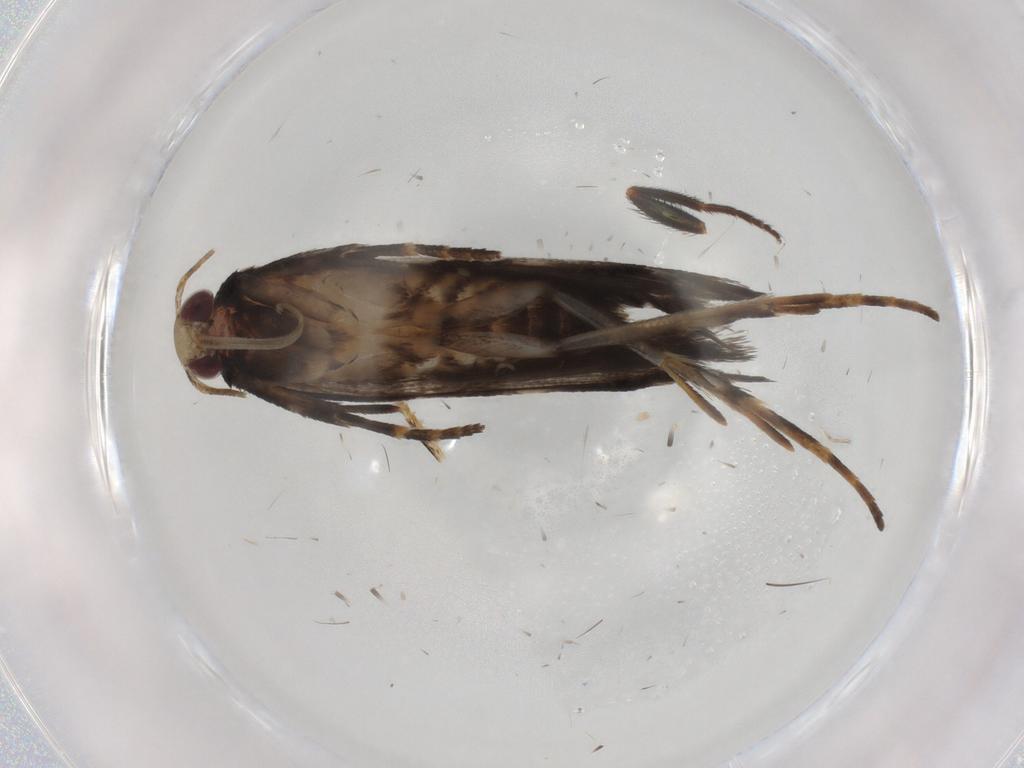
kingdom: Animalia
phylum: Arthropoda
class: Insecta
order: Lepidoptera
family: Gelechiidae
